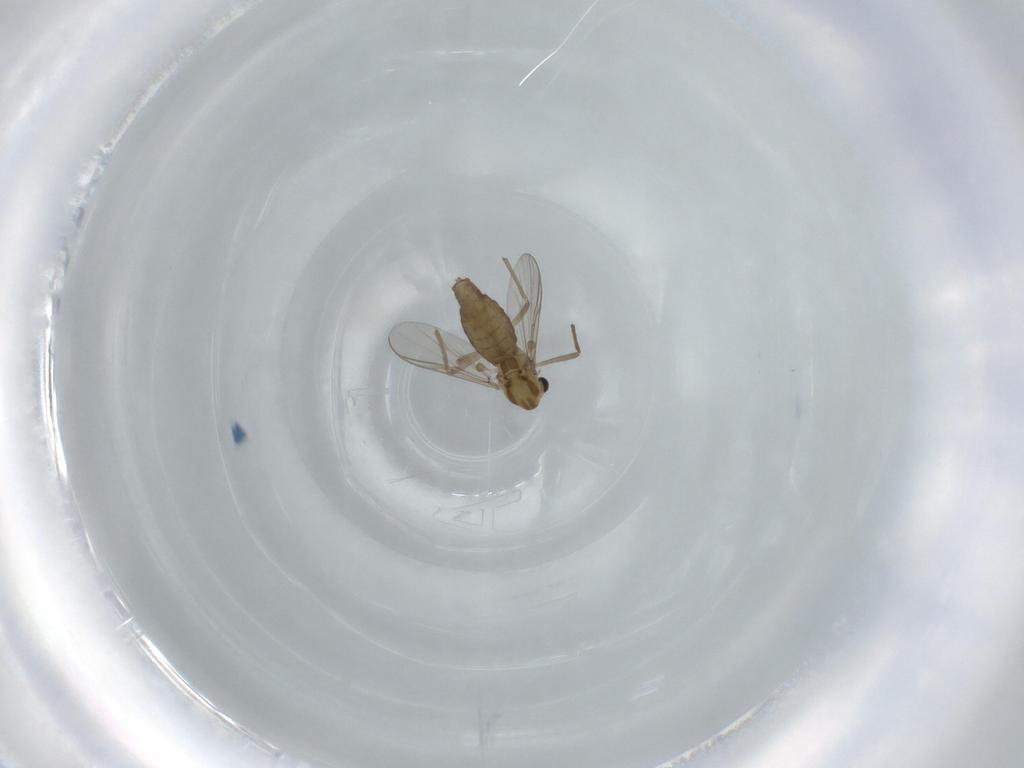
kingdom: Animalia
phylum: Arthropoda
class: Insecta
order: Diptera
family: Chironomidae
